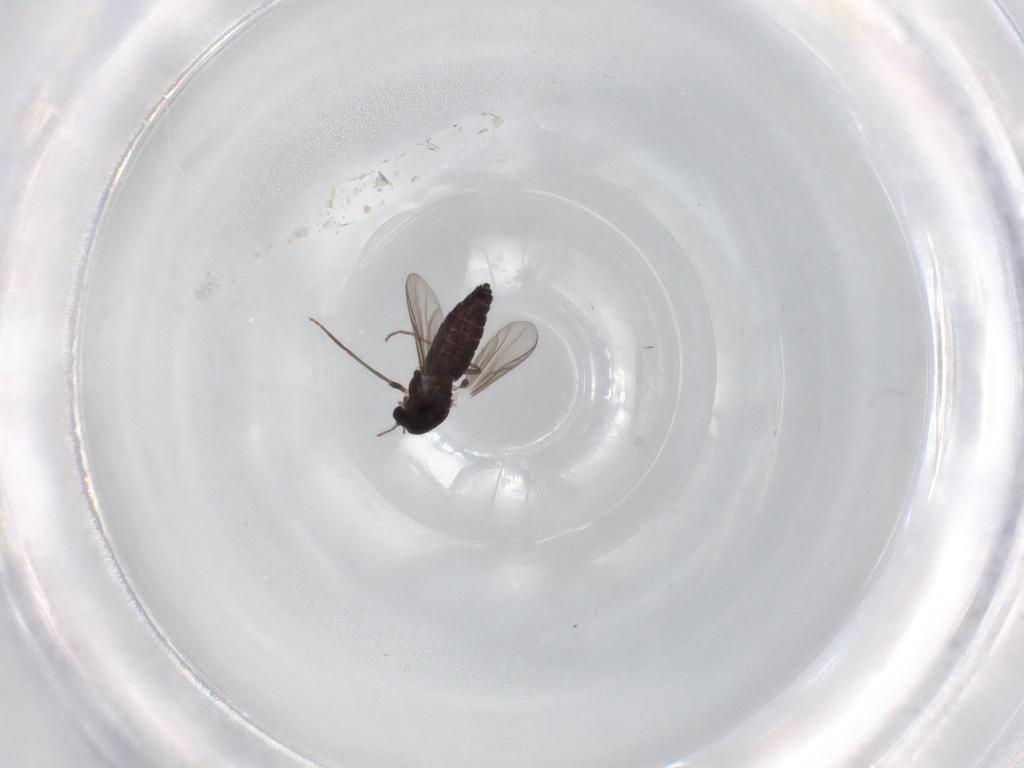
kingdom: Animalia
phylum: Arthropoda
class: Insecta
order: Diptera
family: Chironomidae
